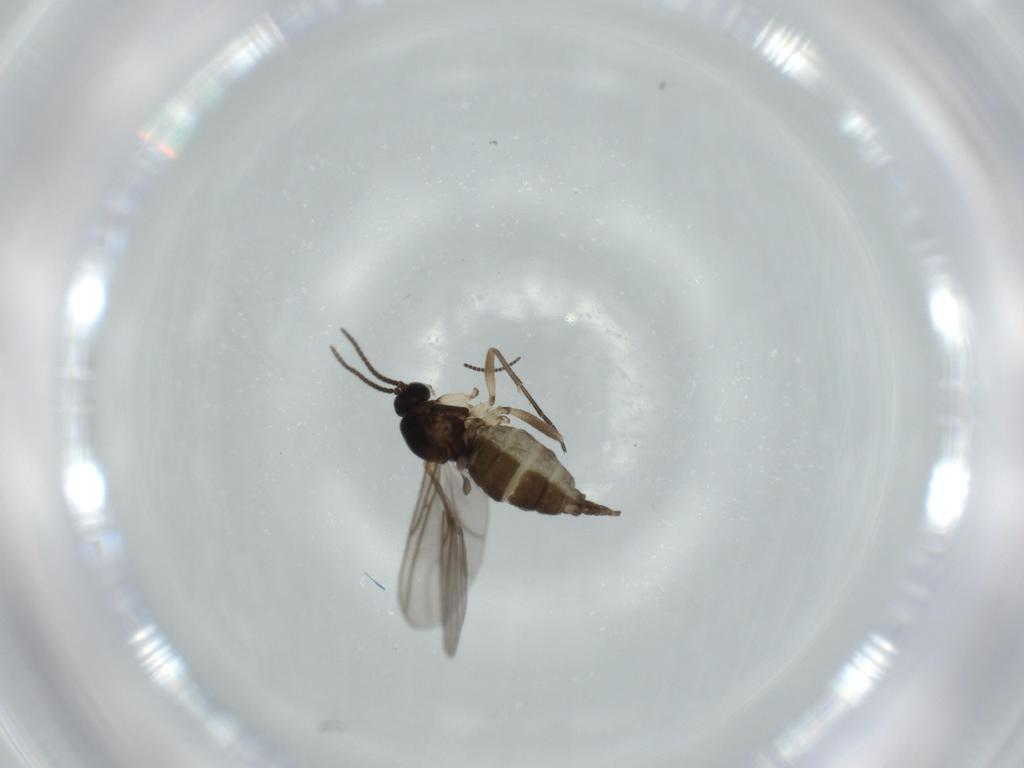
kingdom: Animalia
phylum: Arthropoda
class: Insecta
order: Diptera
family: Sciaridae
